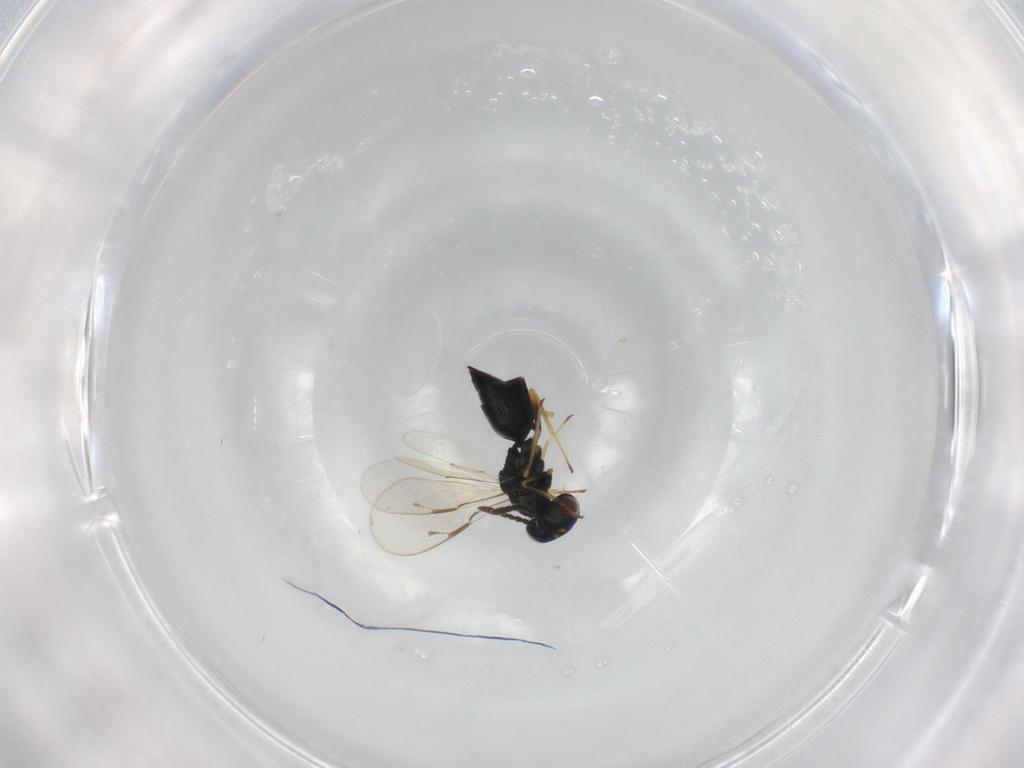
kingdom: Animalia
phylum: Arthropoda
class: Insecta
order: Hymenoptera
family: Pteromalidae
